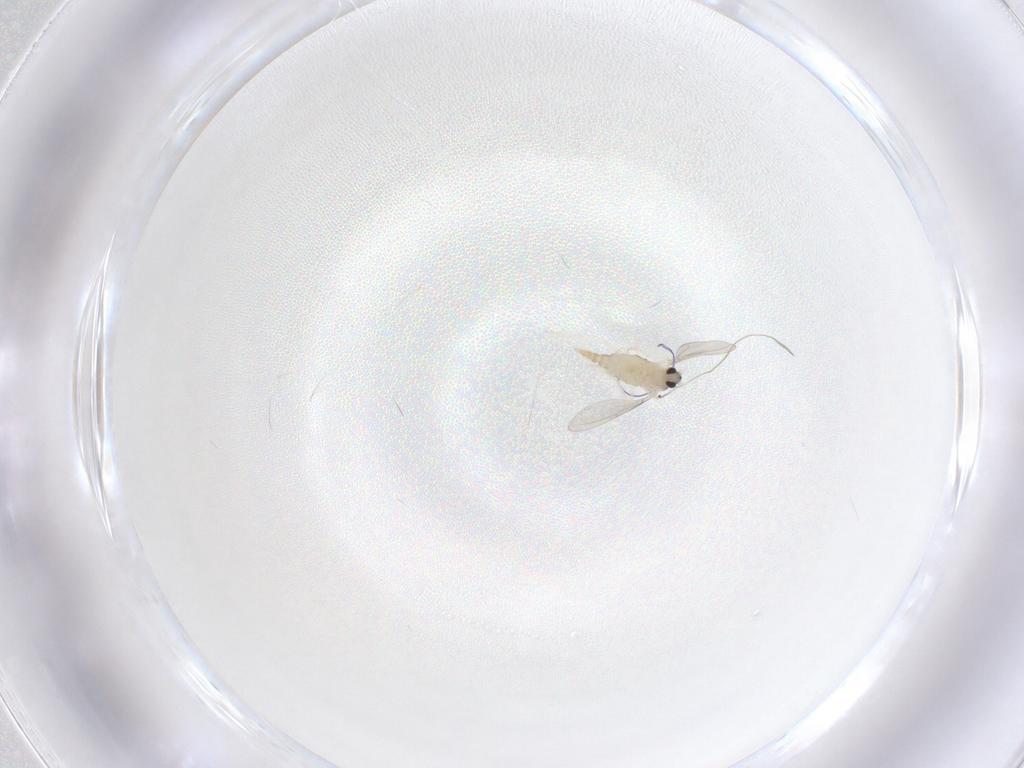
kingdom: Animalia
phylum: Arthropoda
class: Insecta
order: Diptera
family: Cecidomyiidae
